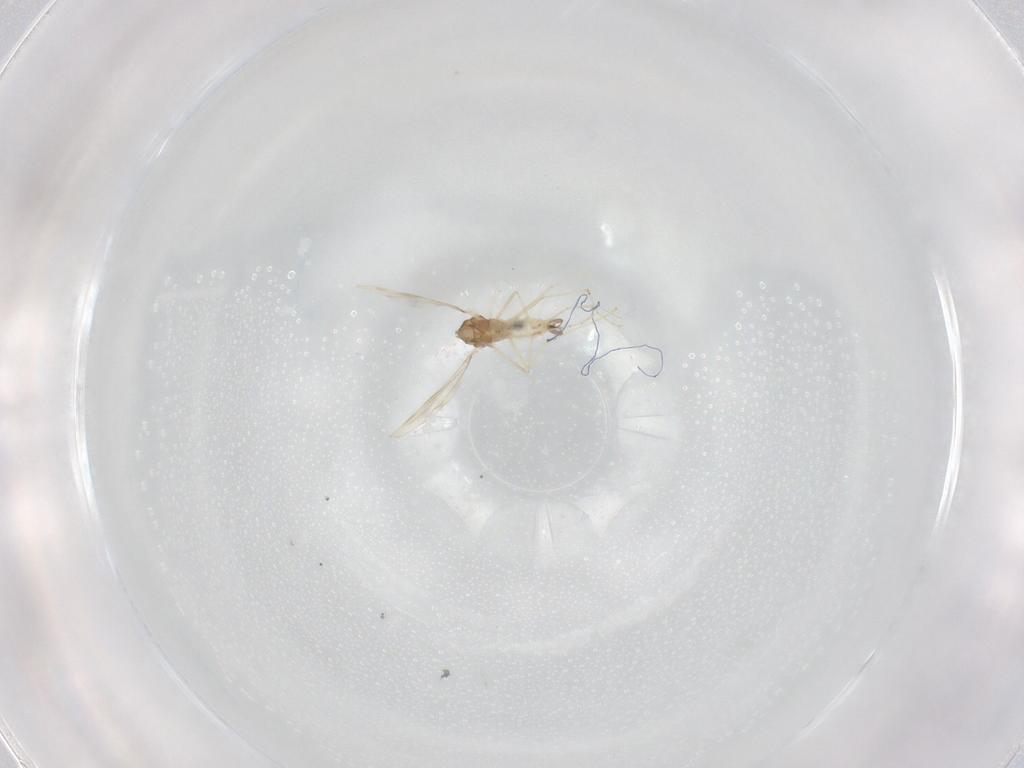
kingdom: Animalia
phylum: Arthropoda
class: Insecta
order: Diptera
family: Cecidomyiidae
